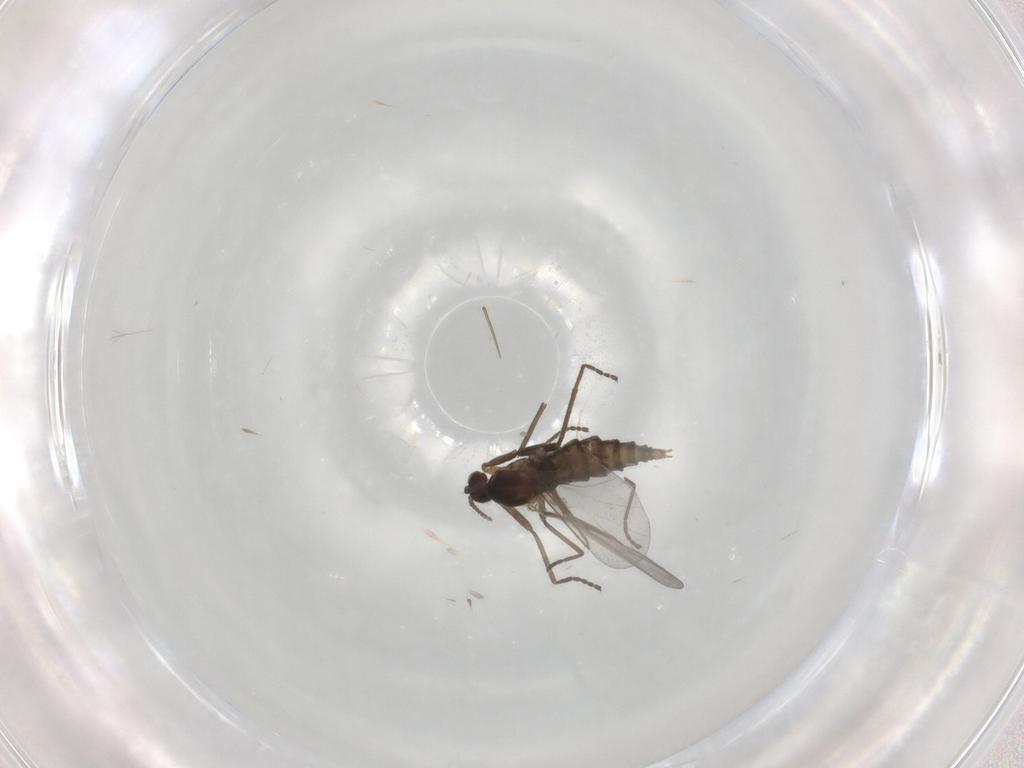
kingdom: Animalia
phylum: Arthropoda
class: Insecta
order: Diptera
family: Cecidomyiidae
